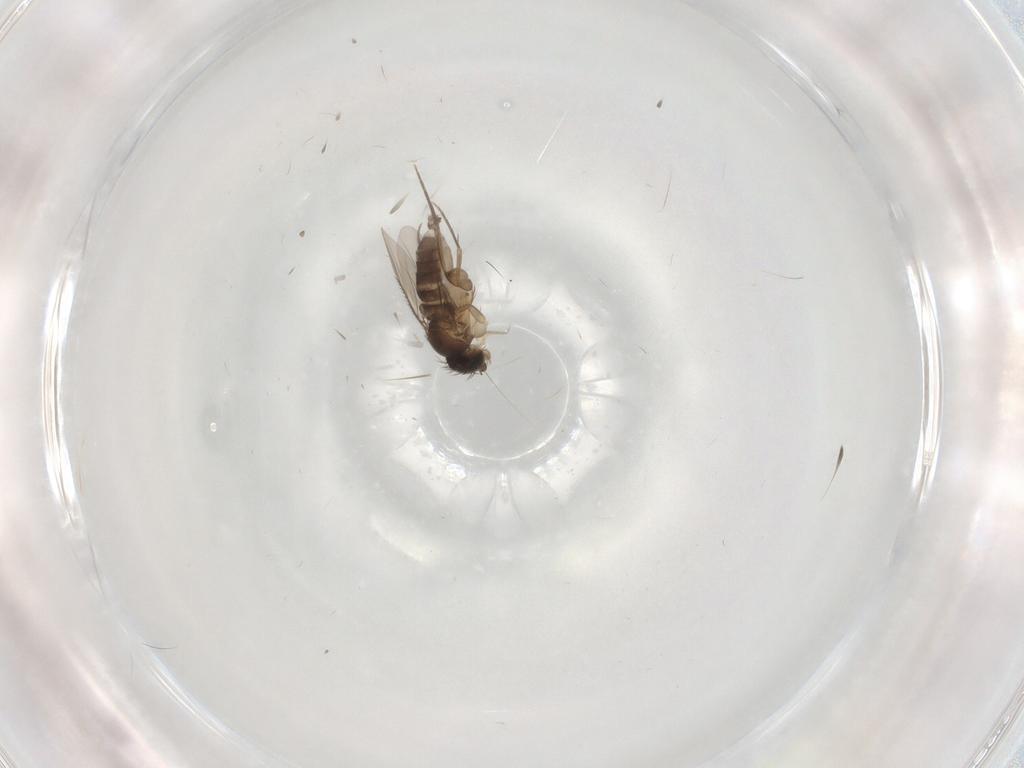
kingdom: Animalia
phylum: Arthropoda
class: Insecta
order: Diptera
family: Phoridae
